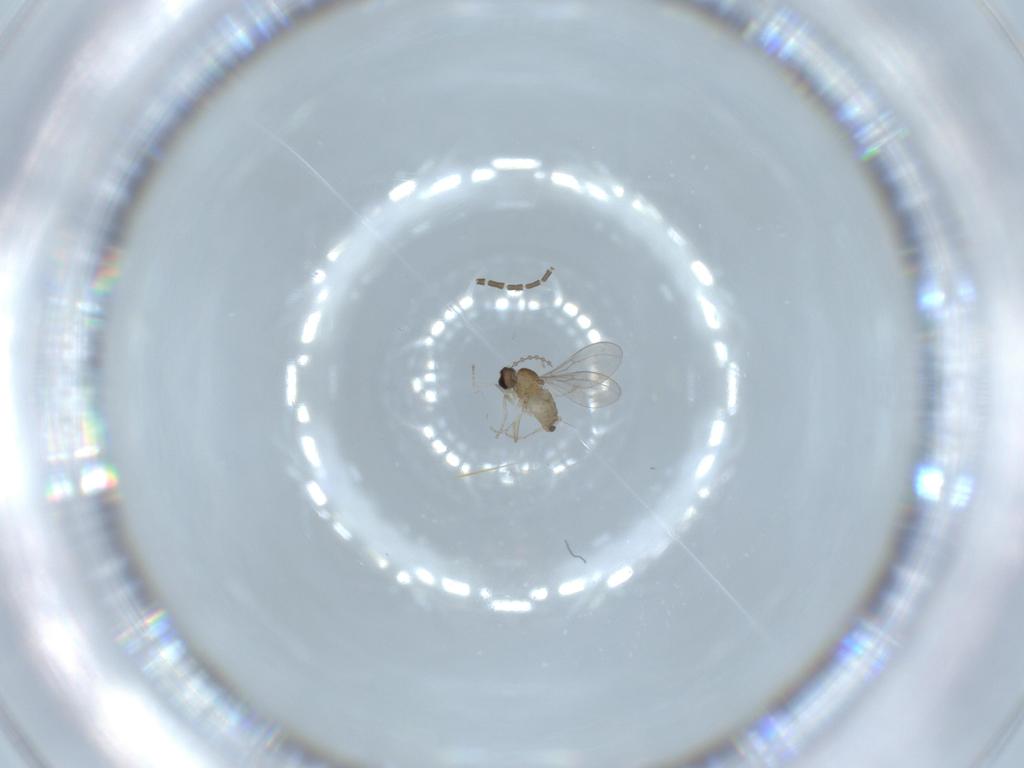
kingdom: Animalia
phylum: Arthropoda
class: Insecta
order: Diptera
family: Cecidomyiidae
